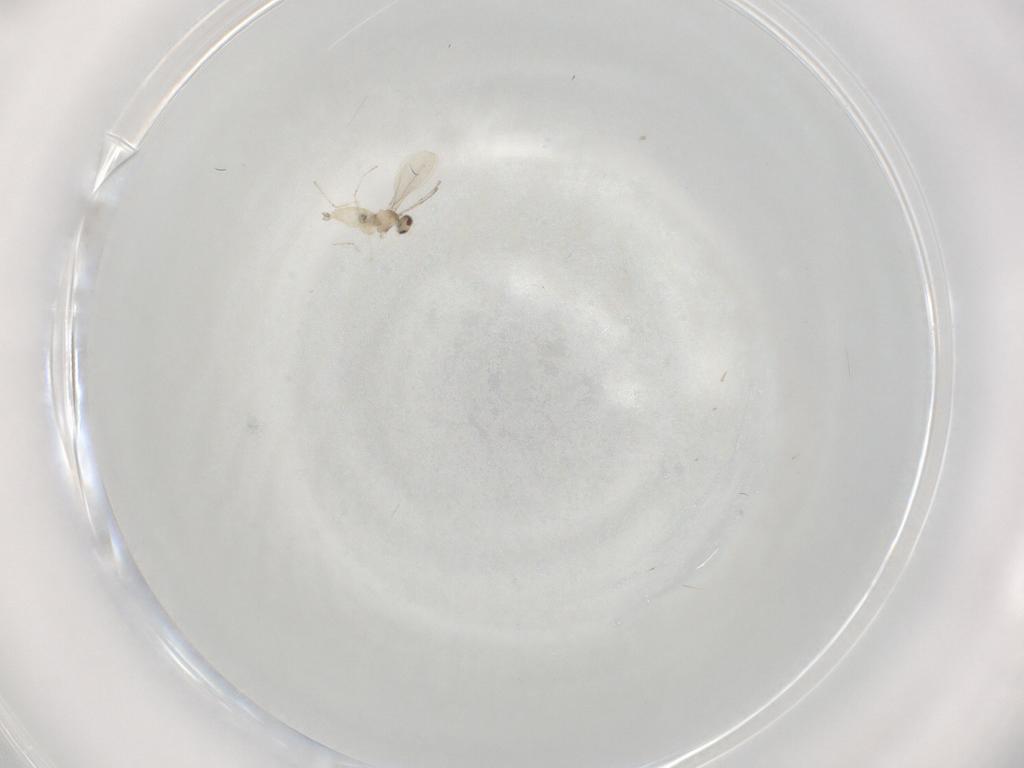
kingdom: Animalia
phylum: Arthropoda
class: Insecta
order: Diptera
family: Cecidomyiidae
